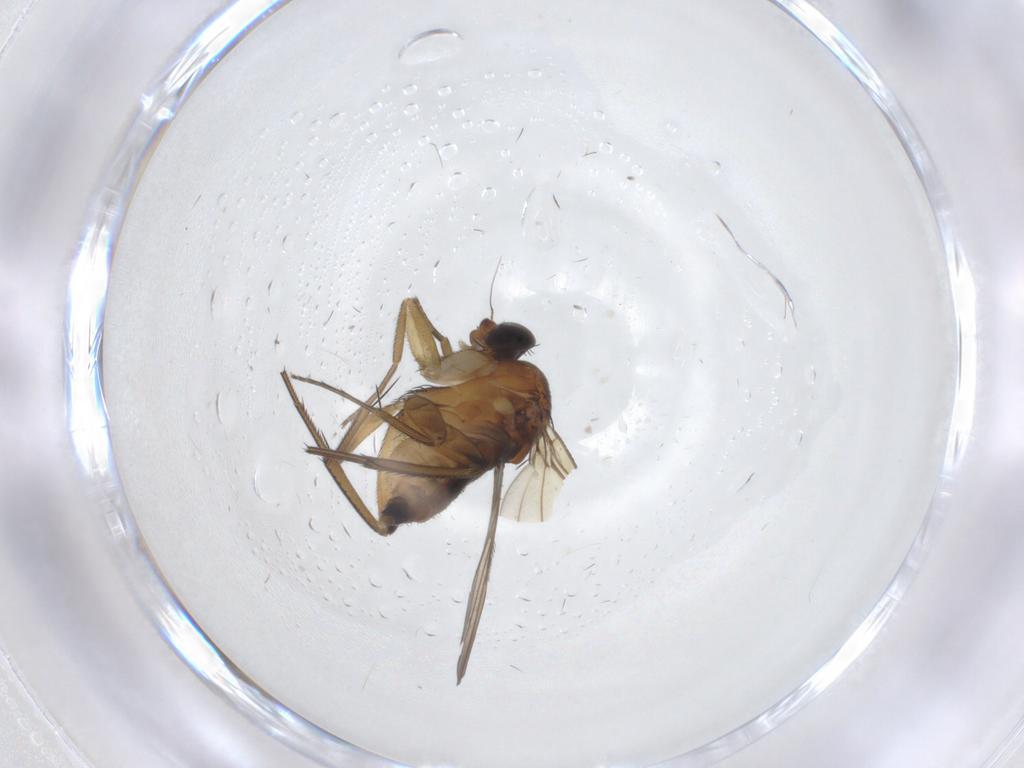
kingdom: Animalia
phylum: Arthropoda
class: Insecta
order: Diptera
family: Phoridae
